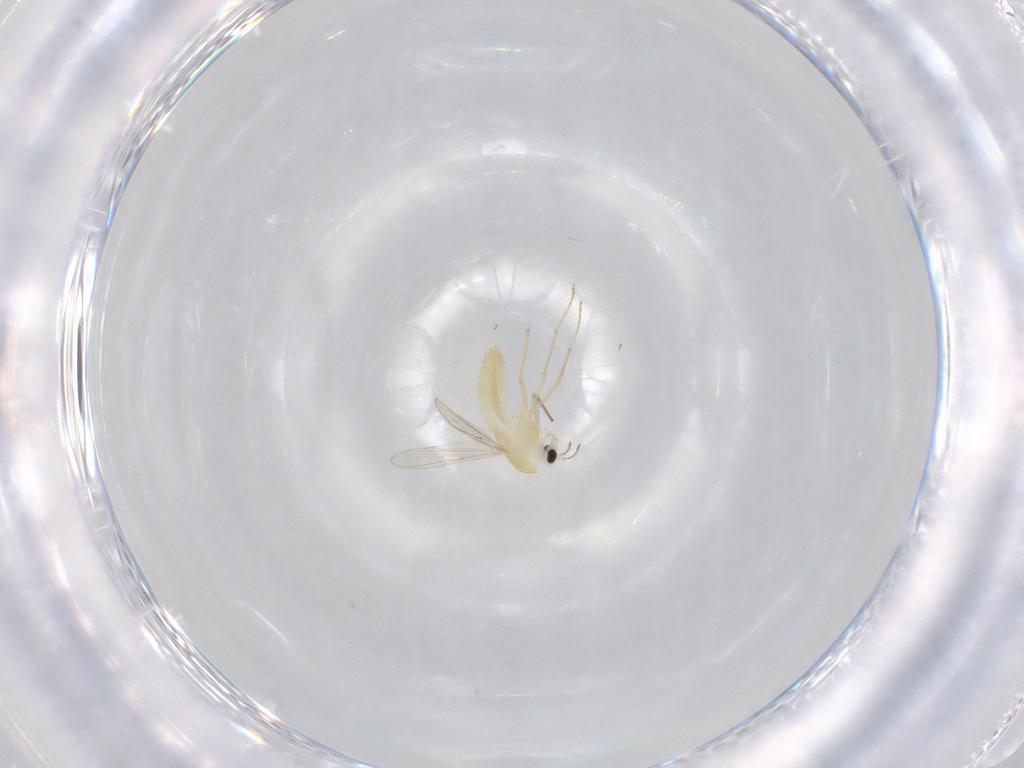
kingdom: Animalia
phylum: Arthropoda
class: Insecta
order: Diptera
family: Chironomidae
